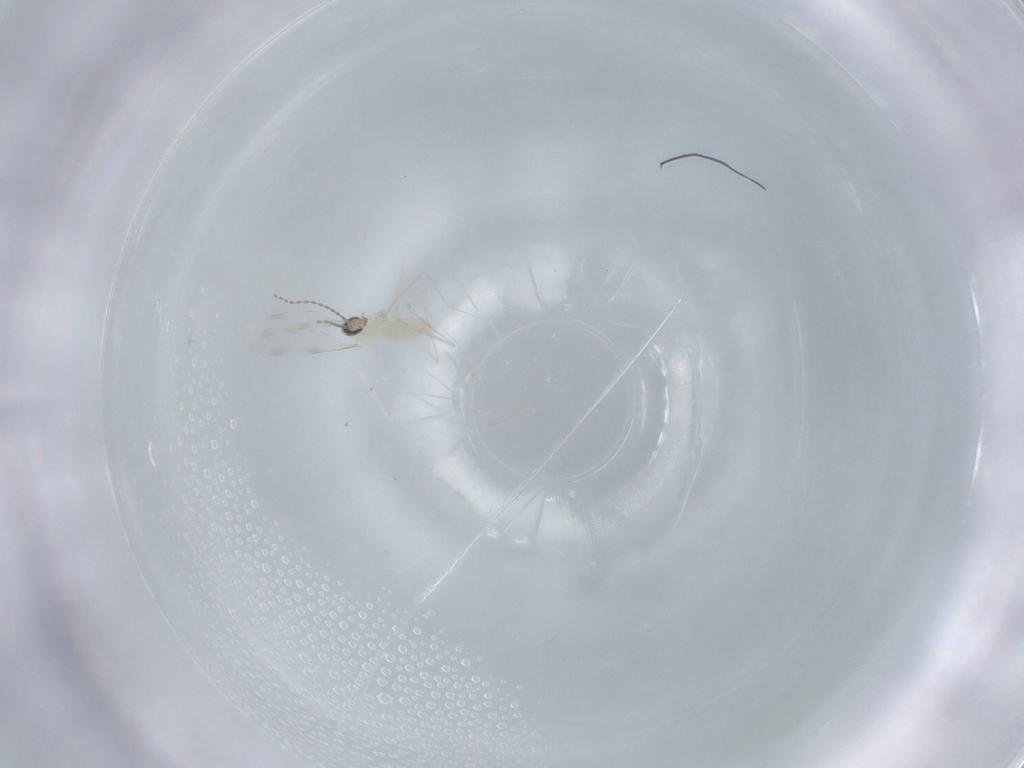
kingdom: Animalia
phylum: Arthropoda
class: Insecta
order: Diptera
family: Cecidomyiidae
